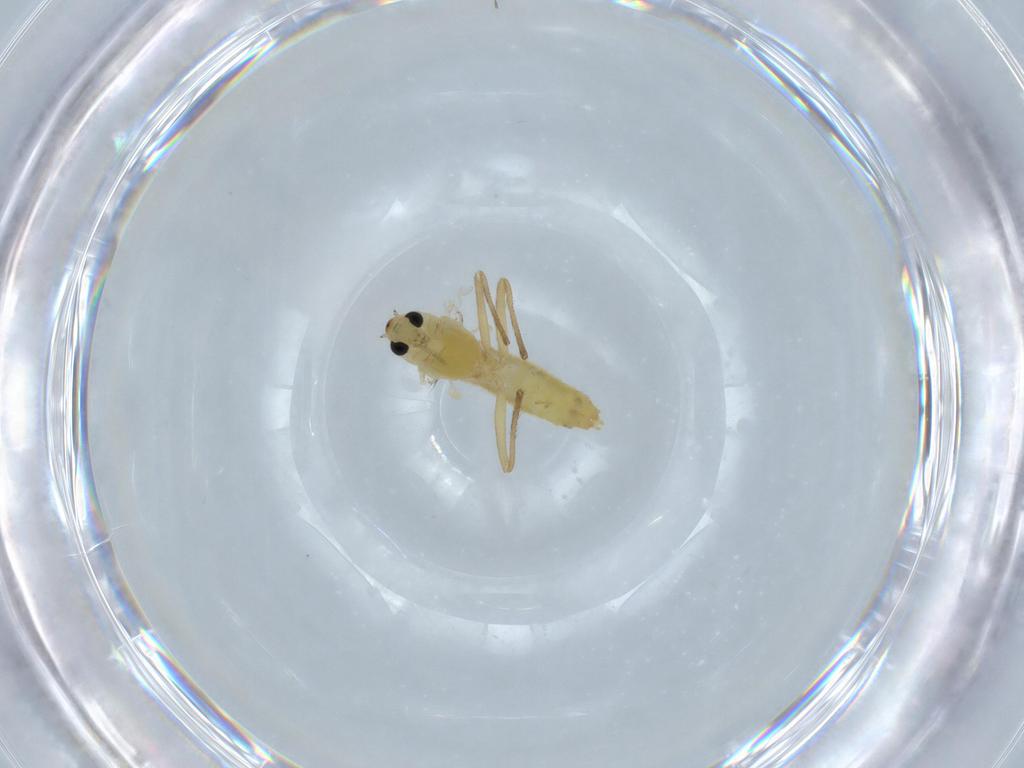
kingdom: Animalia
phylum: Arthropoda
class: Insecta
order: Diptera
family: Chironomidae
